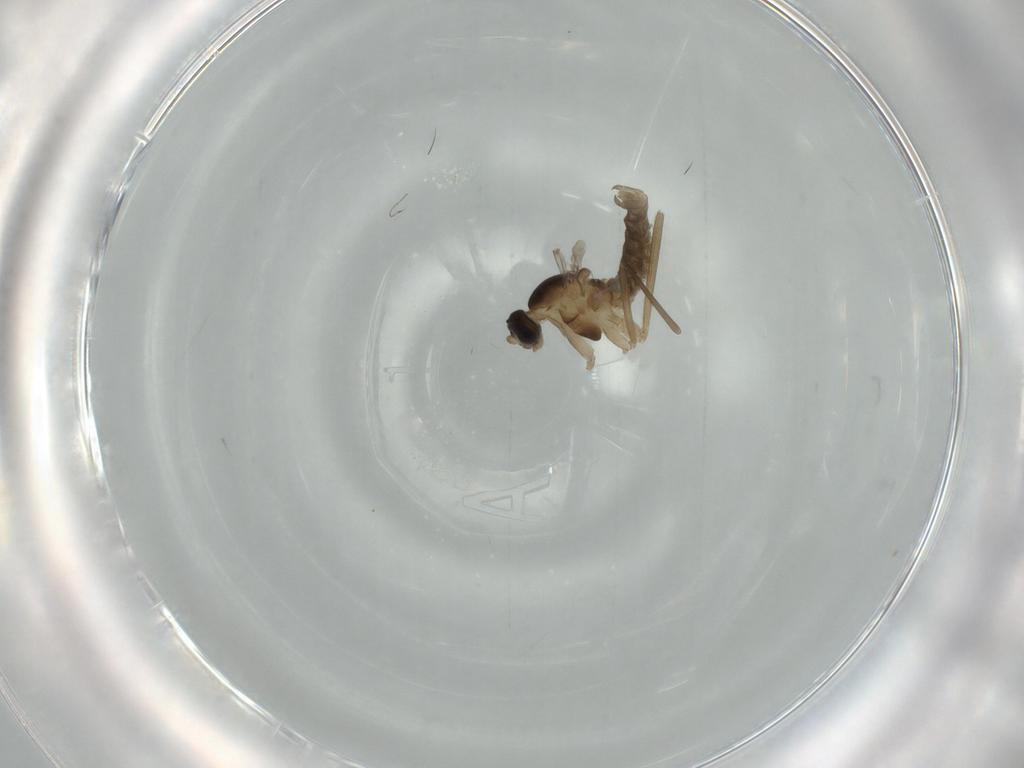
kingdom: Animalia
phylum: Arthropoda
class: Insecta
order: Diptera
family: Cecidomyiidae
